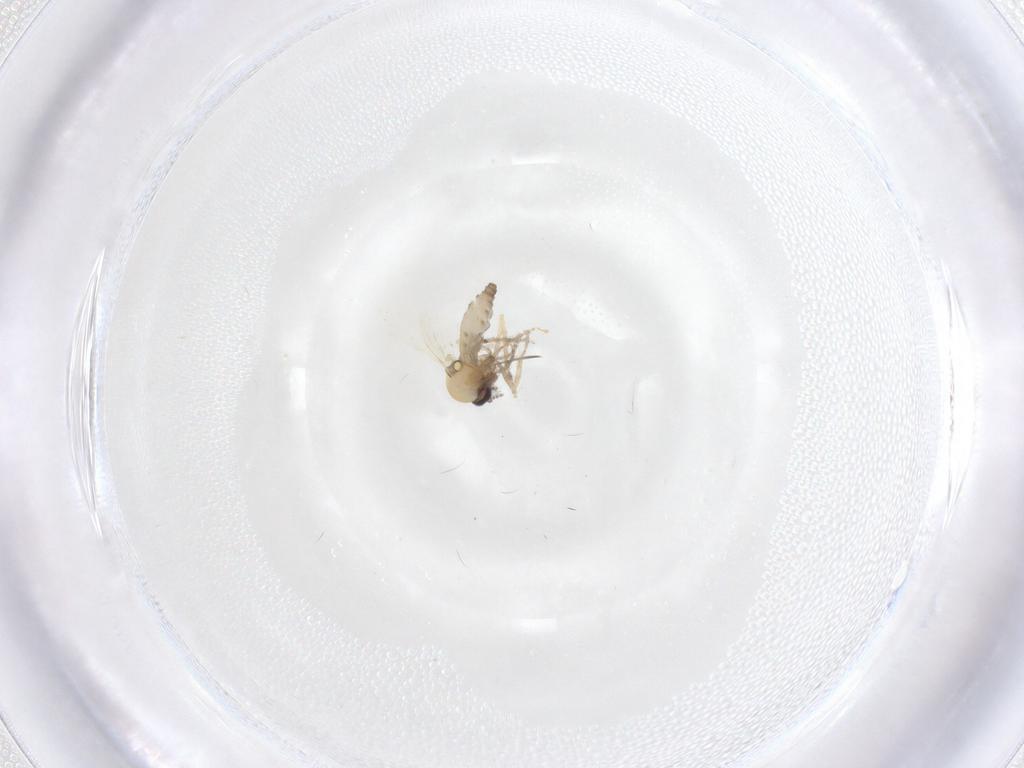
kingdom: Animalia
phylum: Arthropoda
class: Insecta
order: Diptera
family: Ceratopogonidae
